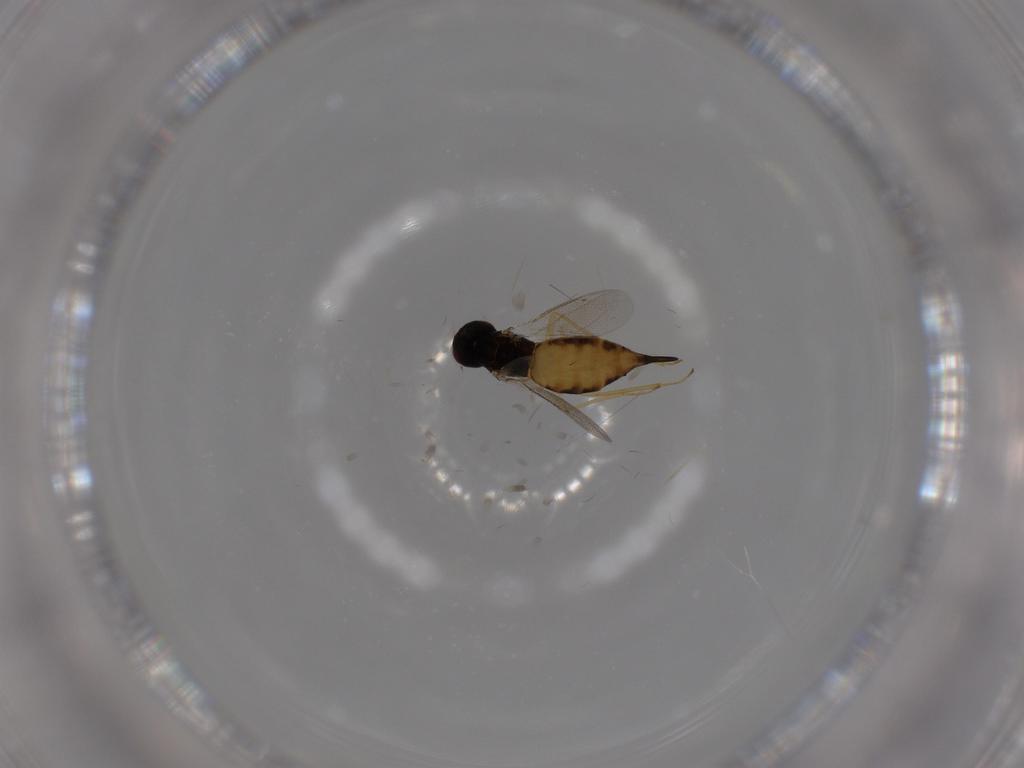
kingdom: Animalia
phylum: Arthropoda
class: Insecta
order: Hymenoptera
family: Eulophidae
